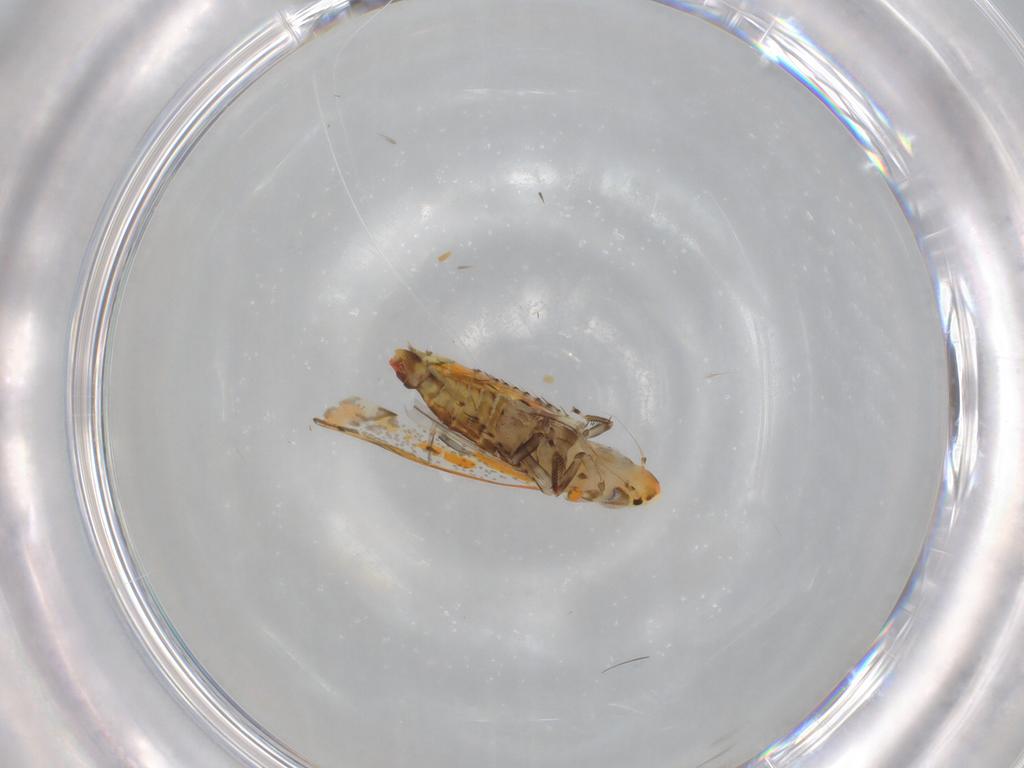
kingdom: Animalia
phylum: Arthropoda
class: Insecta
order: Hemiptera
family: Cicadellidae
